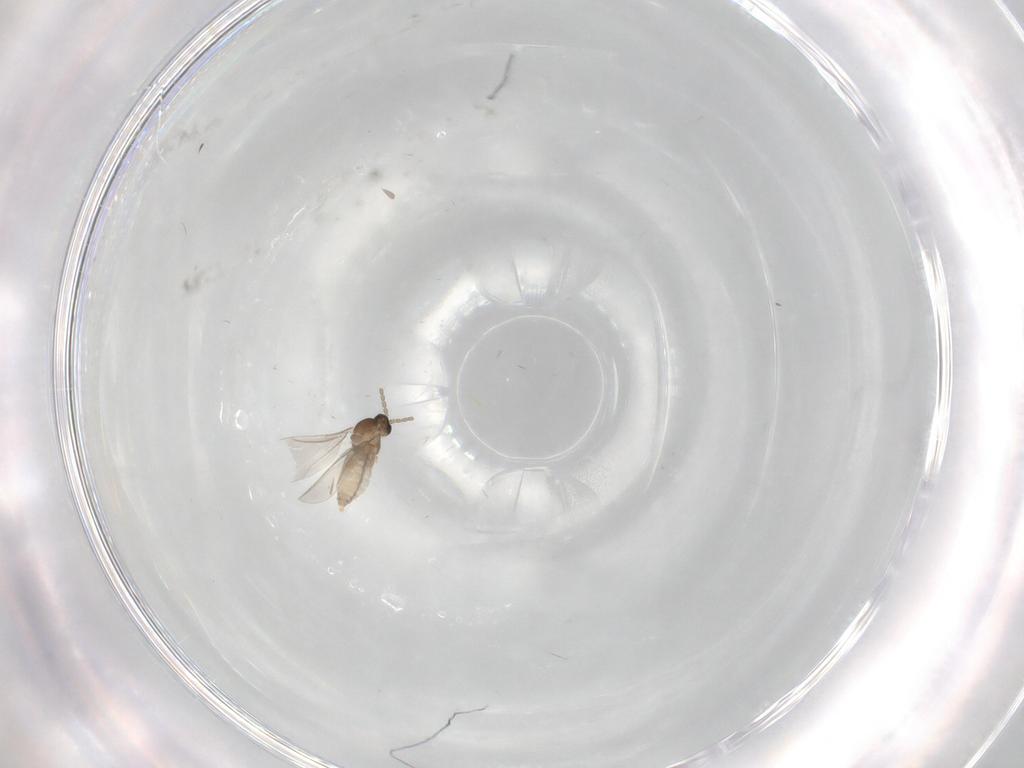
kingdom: Animalia
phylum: Arthropoda
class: Insecta
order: Diptera
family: Cecidomyiidae
